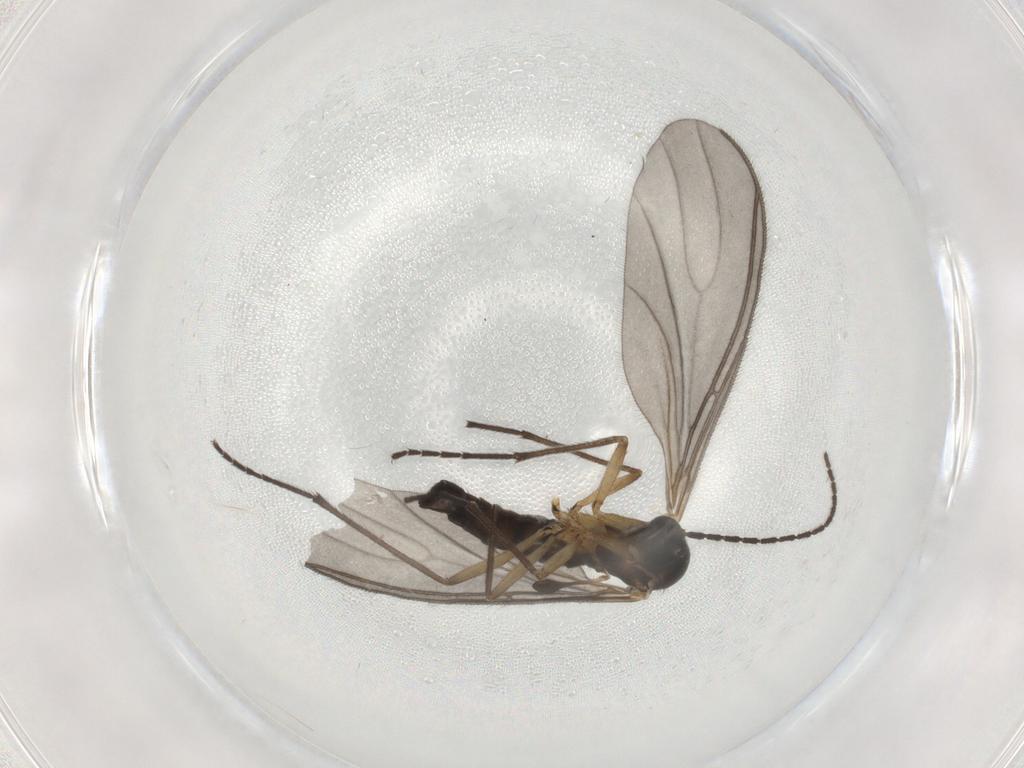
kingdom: Animalia
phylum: Arthropoda
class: Insecta
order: Diptera
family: Sciaridae
